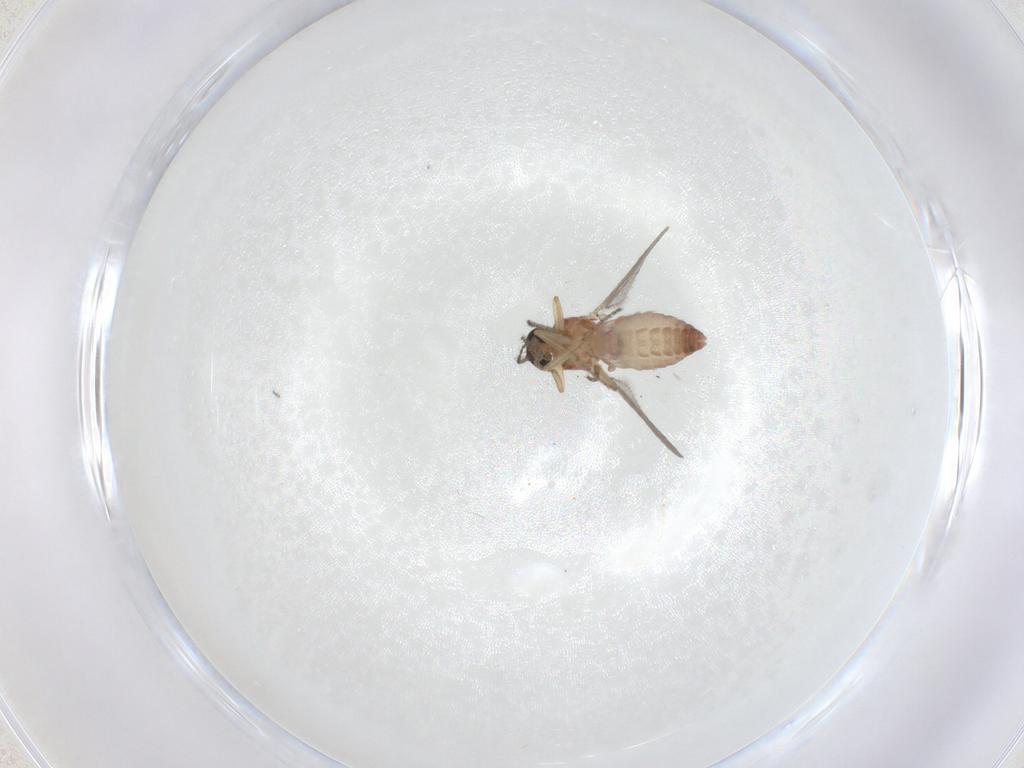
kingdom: Animalia
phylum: Arthropoda
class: Insecta
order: Diptera
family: Ceratopogonidae
